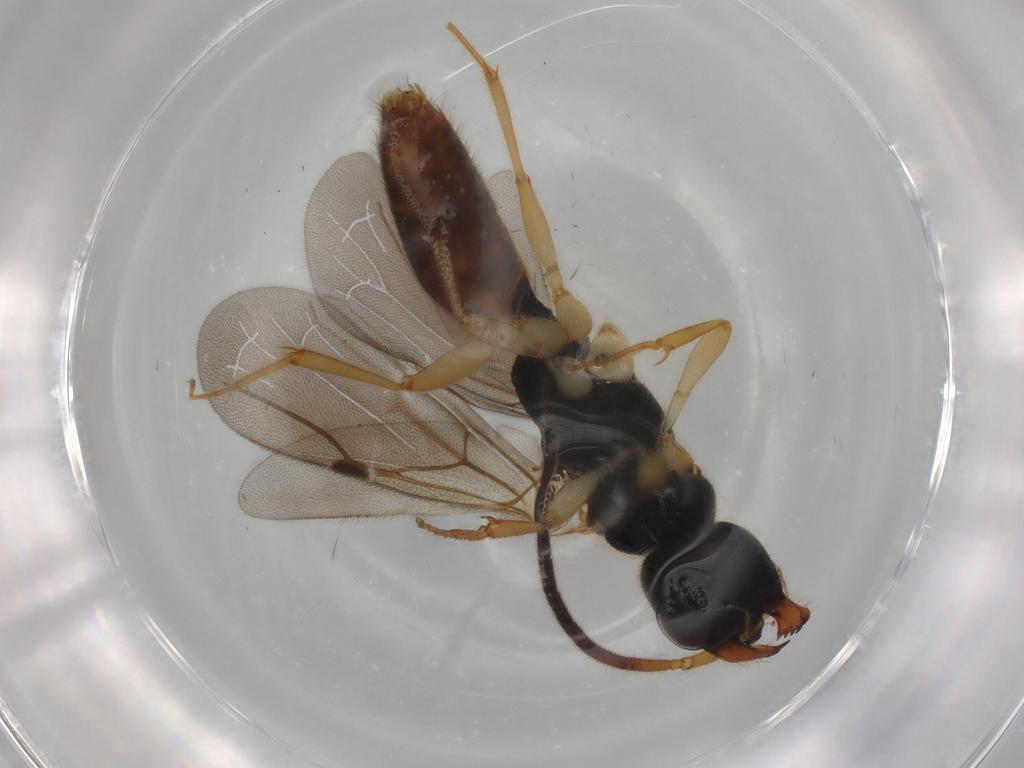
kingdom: Animalia
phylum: Arthropoda
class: Insecta
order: Hymenoptera
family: Bethylidae
